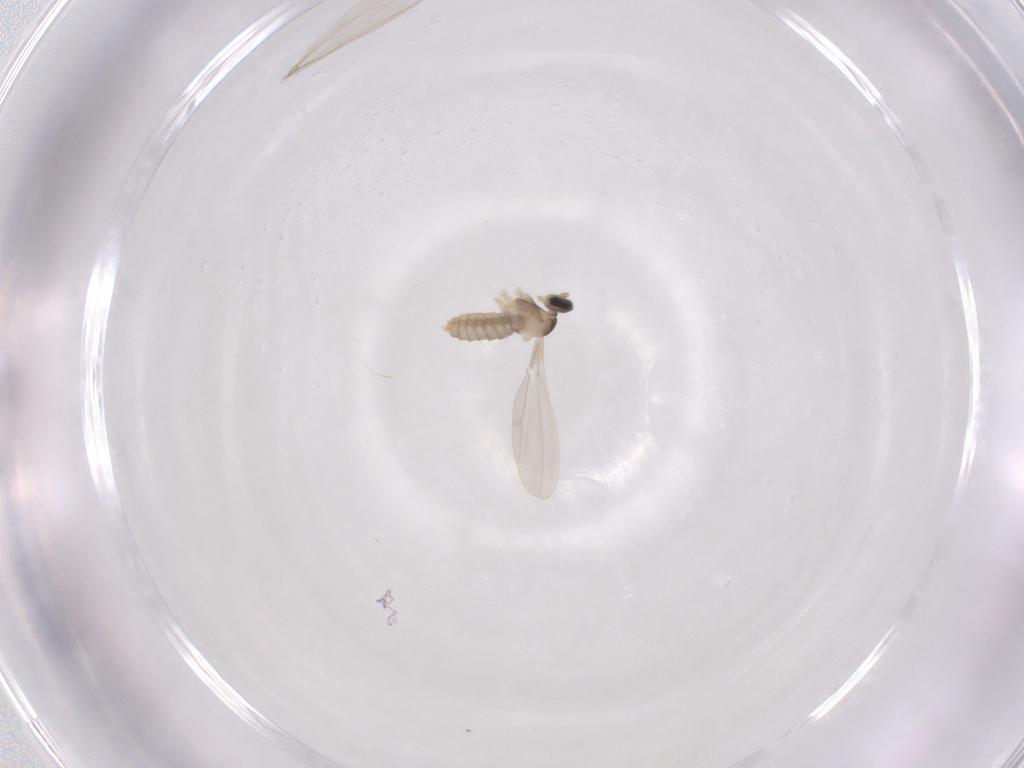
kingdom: Animalia
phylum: Arthropoda
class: Insecta
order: Diptera
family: Cecidomyiidae
